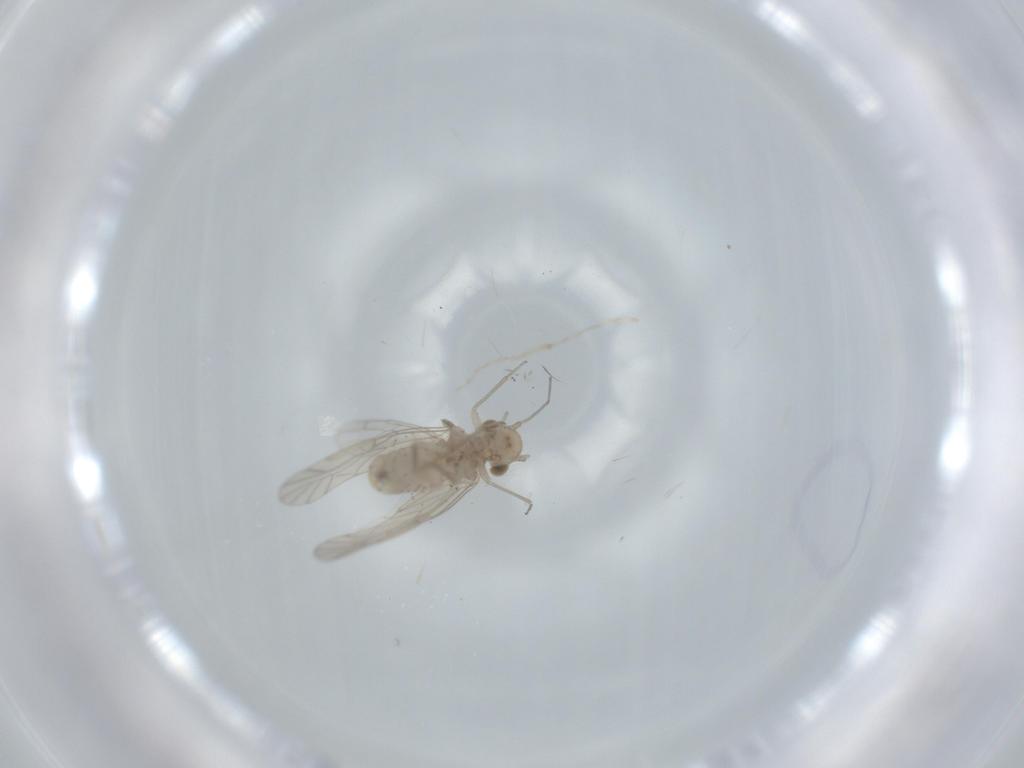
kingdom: Animalia
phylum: Arthropoda
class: Insecta
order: Psocodea
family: Lachesillidae
